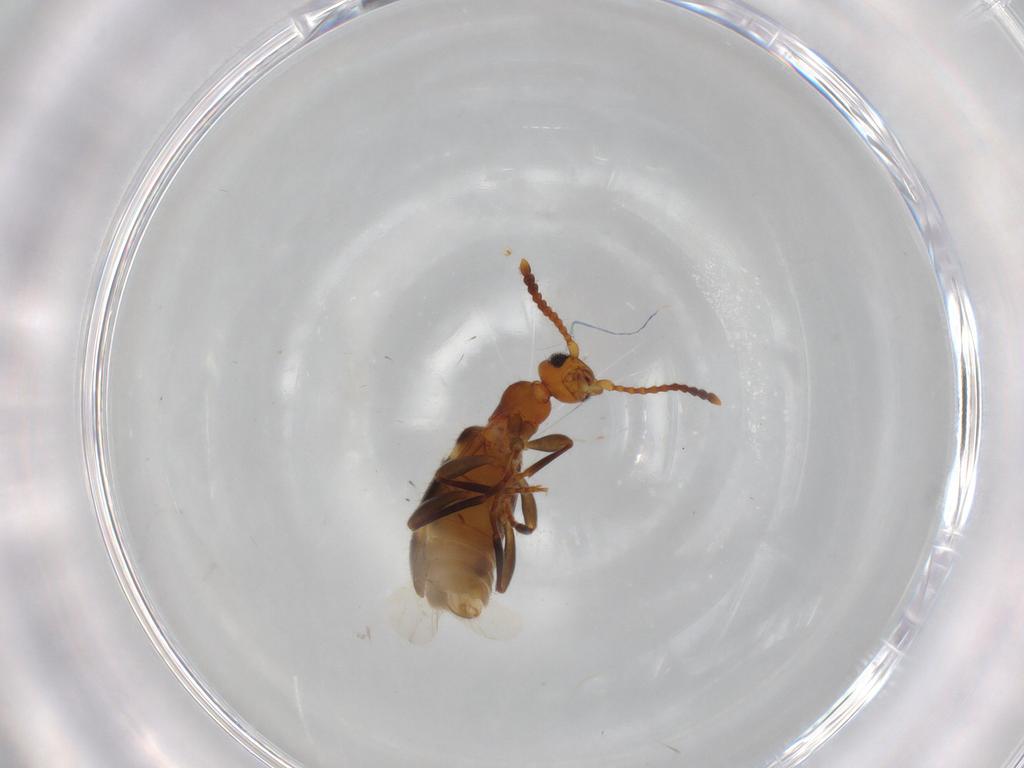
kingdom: Animalia
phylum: Arthropoda
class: Insecta
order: Coleoptera
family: Anthicidae
